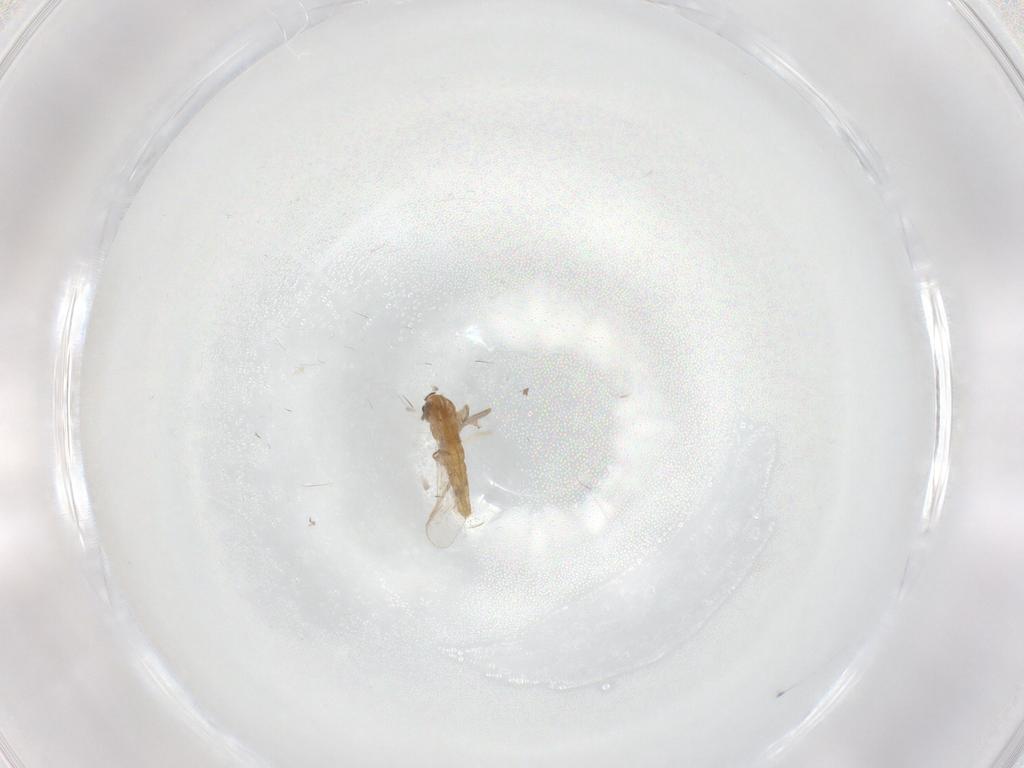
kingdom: Animalia
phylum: Arthropoda
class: Insecta
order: Diptera
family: Chironomidae
